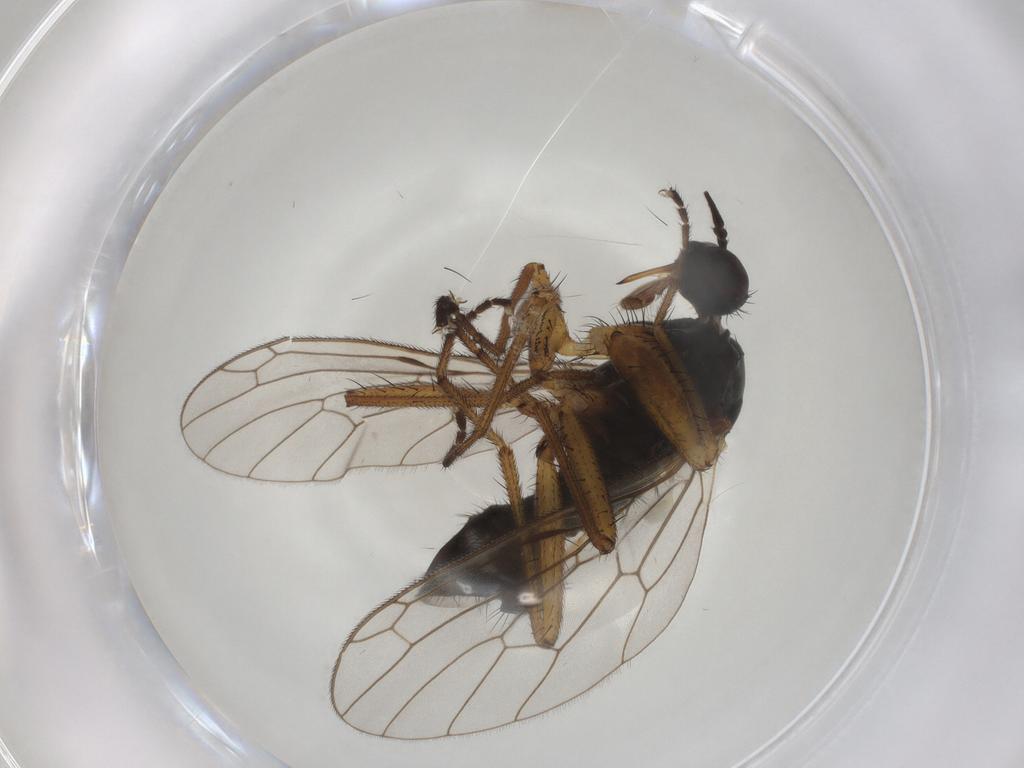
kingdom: Animalia
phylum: Arthropoda
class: Insecta
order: Diptera
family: Empididae
